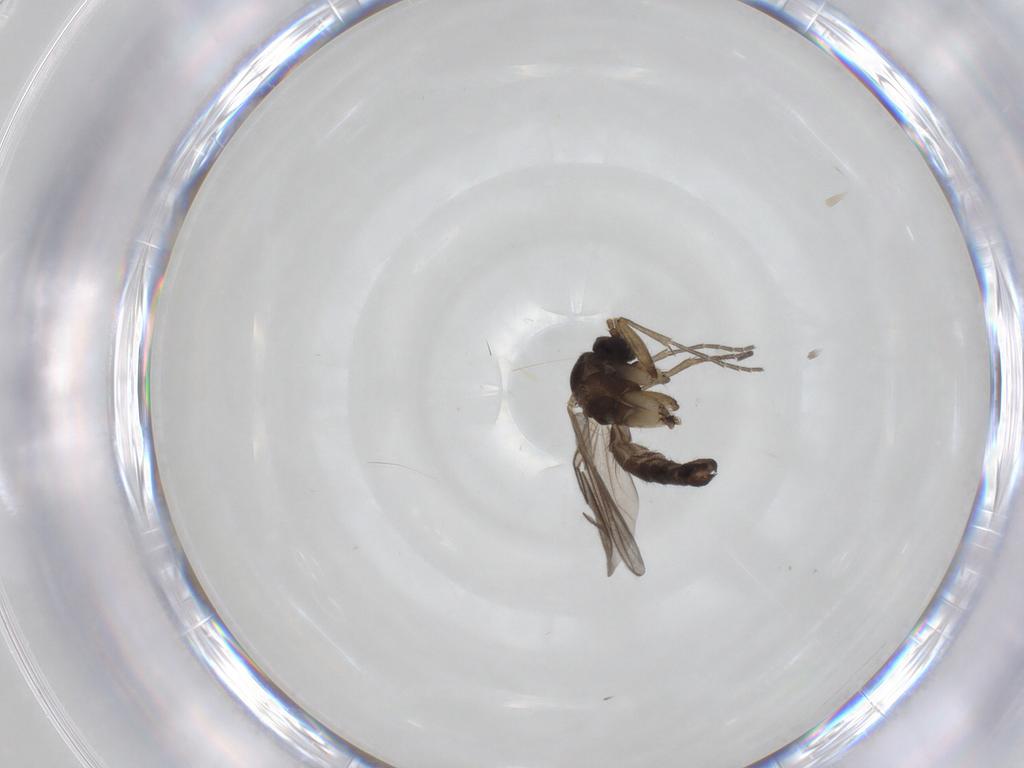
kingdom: Animalia
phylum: Arthropoda
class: Insecta
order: Diptera
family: Mycetophilidae
